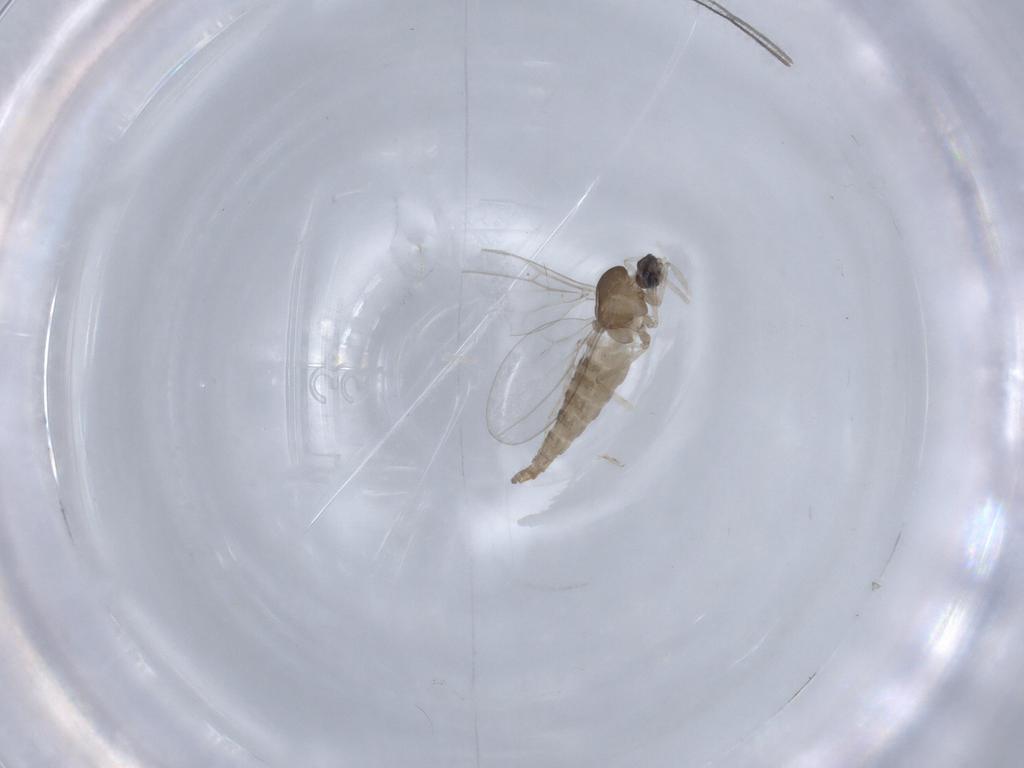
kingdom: Animalia
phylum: Arthropoda
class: Insecta
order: Diptera
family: Cecidomyiidae
